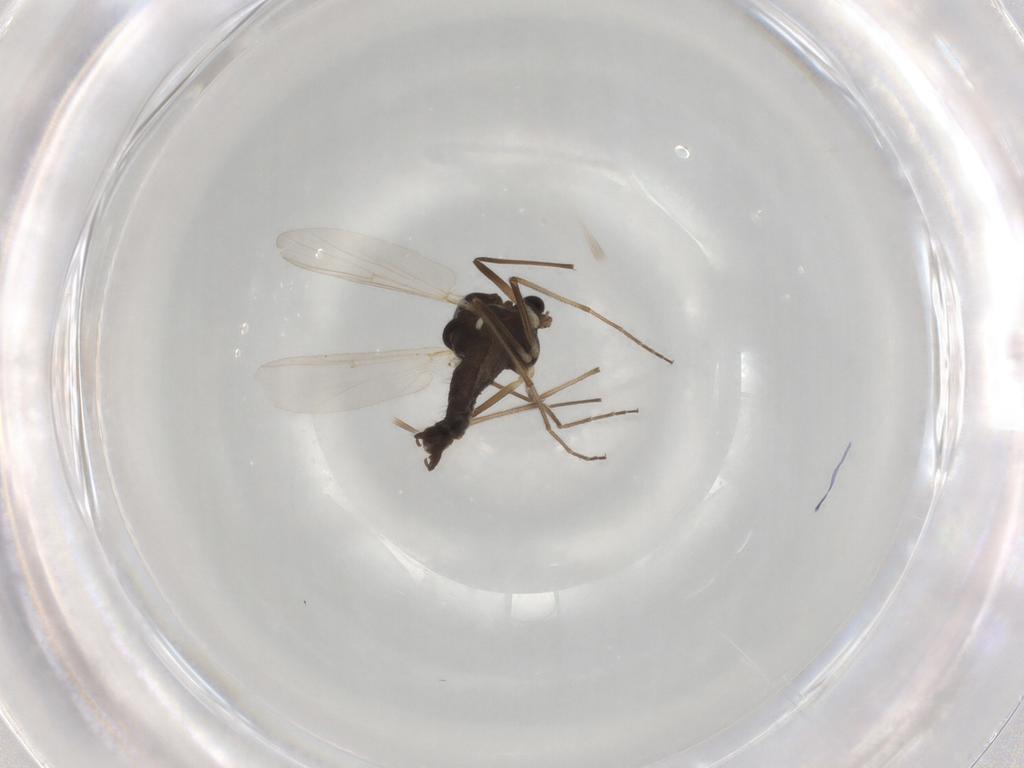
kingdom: Animalia
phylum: Arthropoda
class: Insecta
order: Diptera
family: Chironomidae
